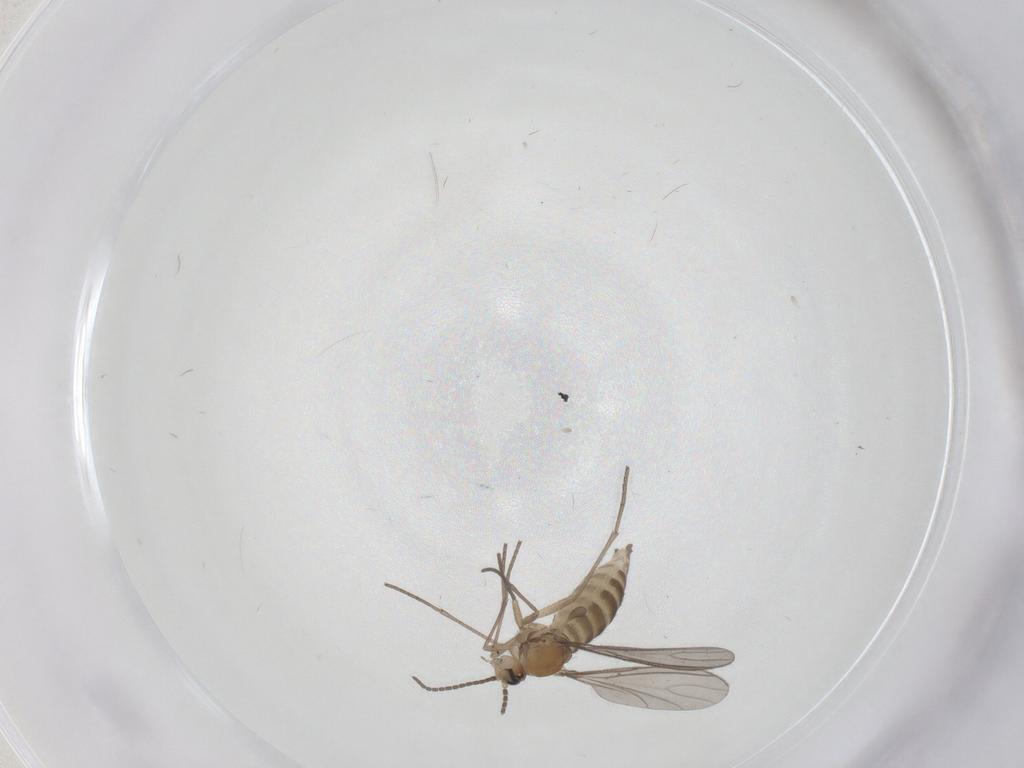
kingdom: Animalia
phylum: Arthropoda
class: Insecta
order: Diptera
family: Sciaridae
